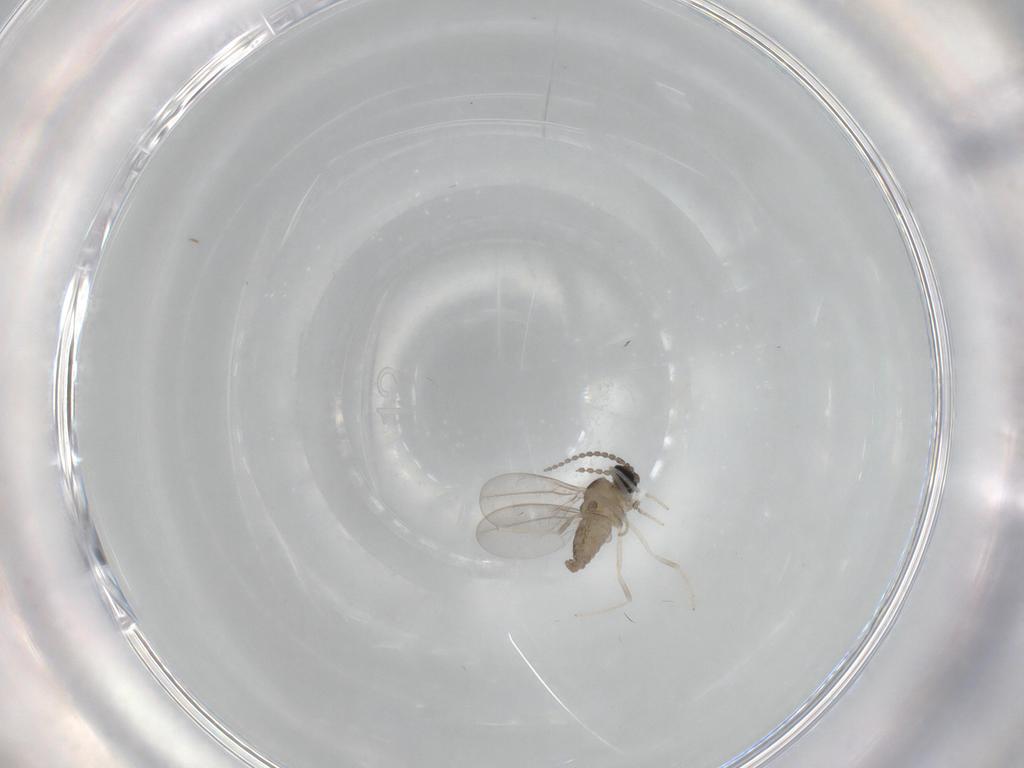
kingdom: Animalia
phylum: Arthropoda
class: Insecta
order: Diptera
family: Cecidomyiidae
